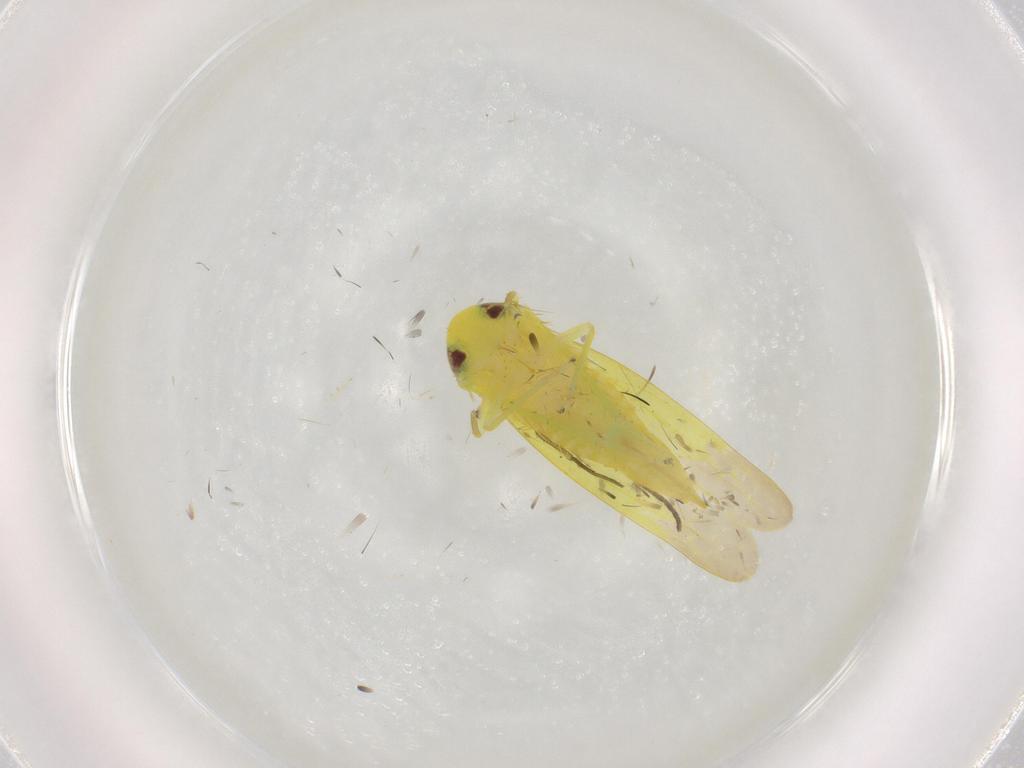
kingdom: Animalia
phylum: Arthropoda
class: Insecta
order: Hemiptera
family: Cicadellidae
